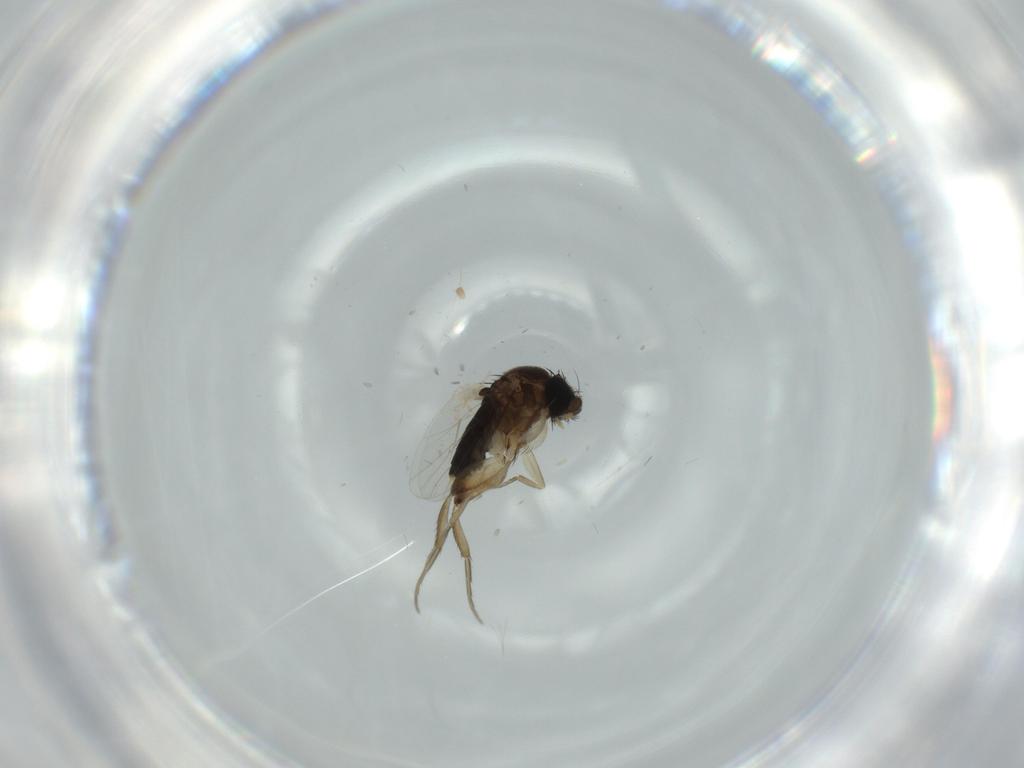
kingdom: Animalia
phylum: Arthropoda
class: Insecta
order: Diptera
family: Phoridae
